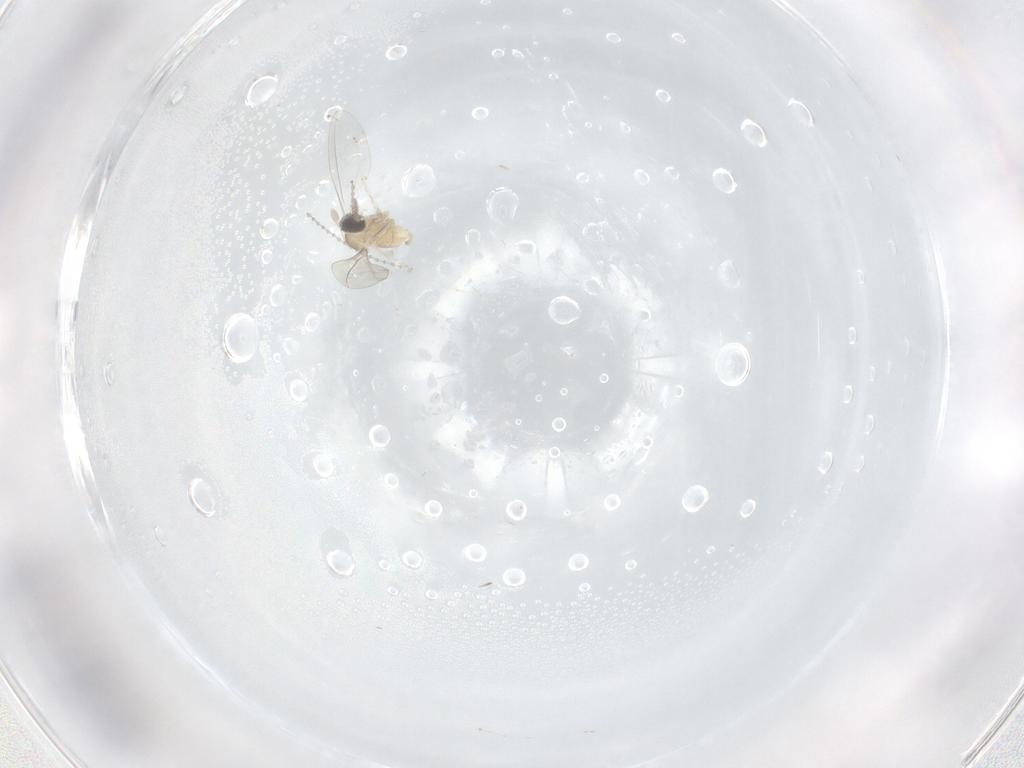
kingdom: Animalia
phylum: Arthropoda
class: Insecta
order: Diptera
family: Cecidomyiidae
